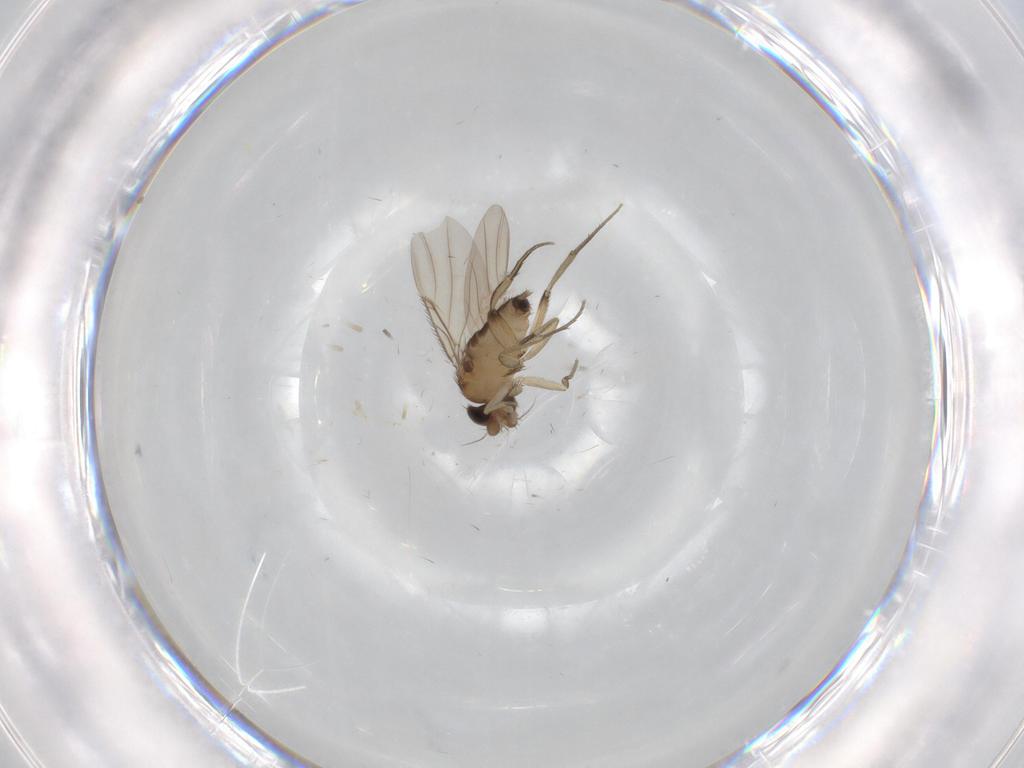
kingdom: Animalia
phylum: Arthropoda
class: Insecta
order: Diptera
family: Phoridae
